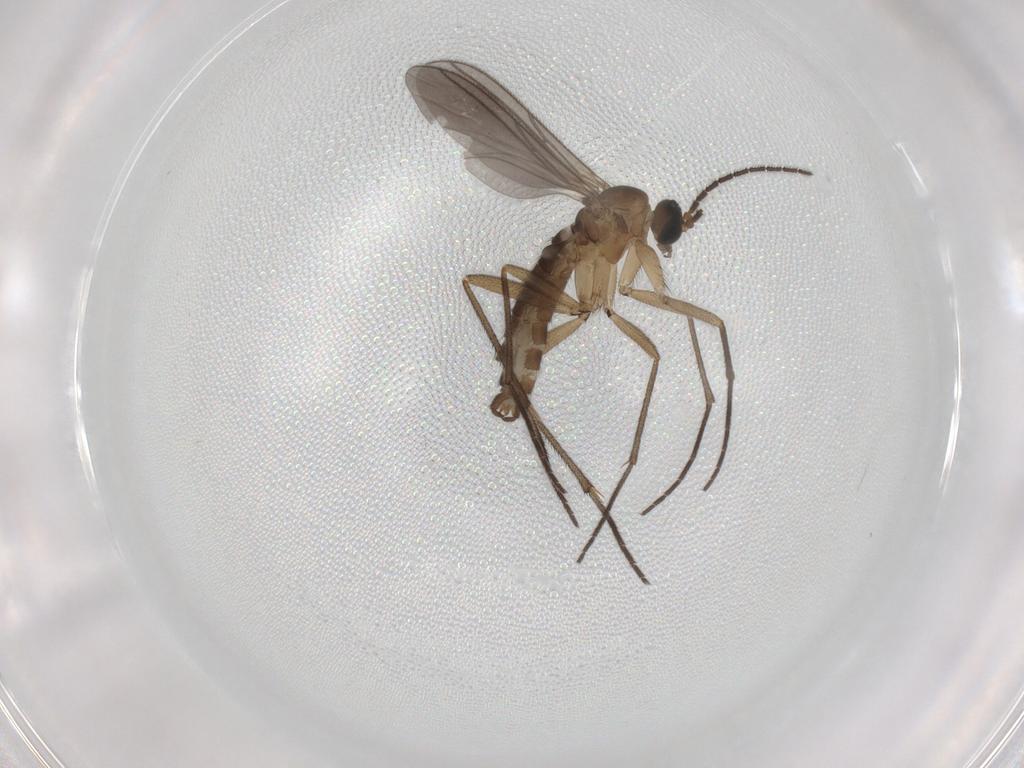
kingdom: Animalia
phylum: Arthropoda
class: Insecta
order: Diptera
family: Sciaridae
